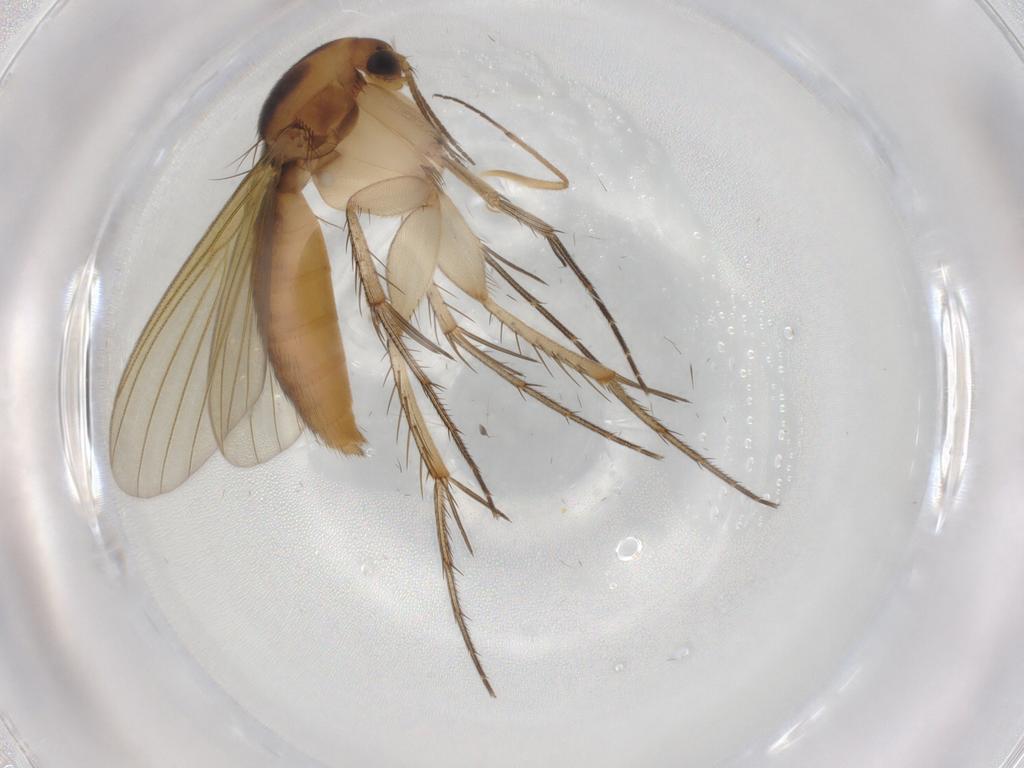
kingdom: Animalia
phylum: Arthropoda
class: Insecta
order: Diptera
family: Mycetophilidae
